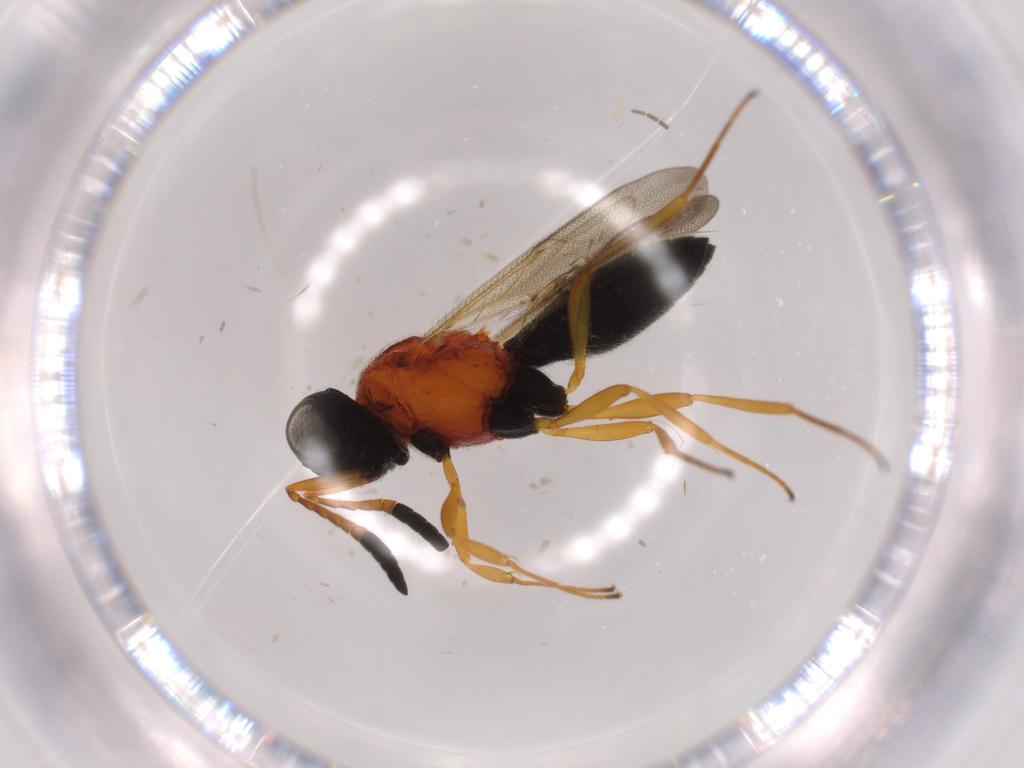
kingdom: Animalia
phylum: Arthropoda
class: Insecta
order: Hymenoptera
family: Scelionidae
